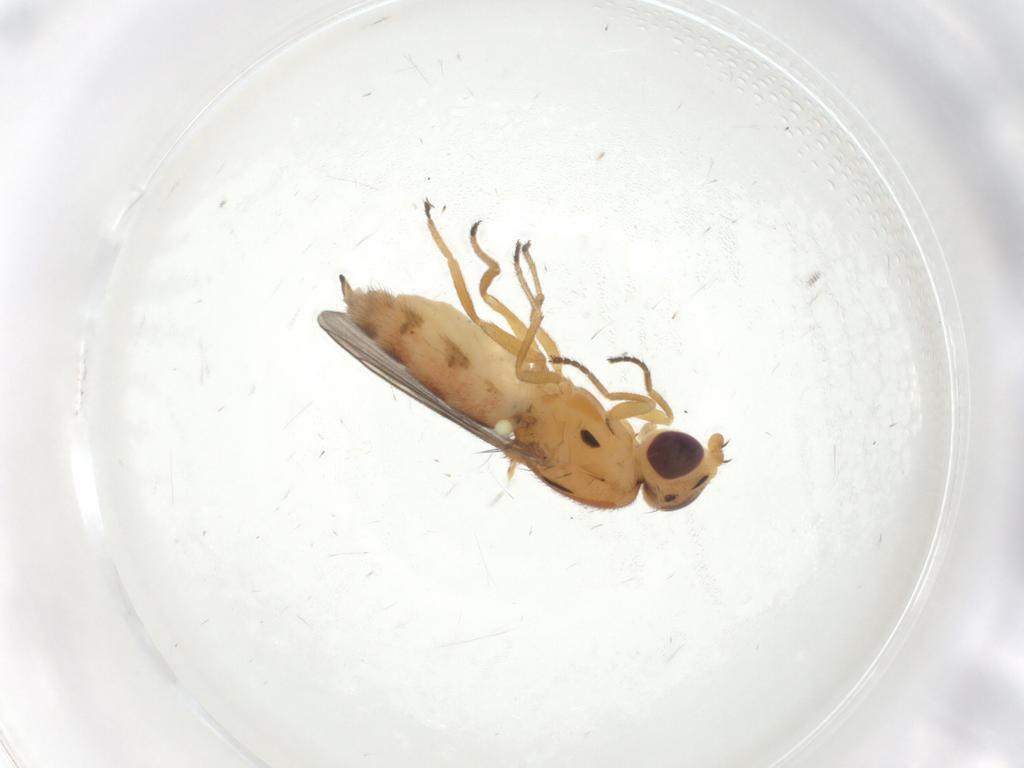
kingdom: Animalia
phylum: Arthropoda
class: Insecta
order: Diptera
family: Chloropidae
